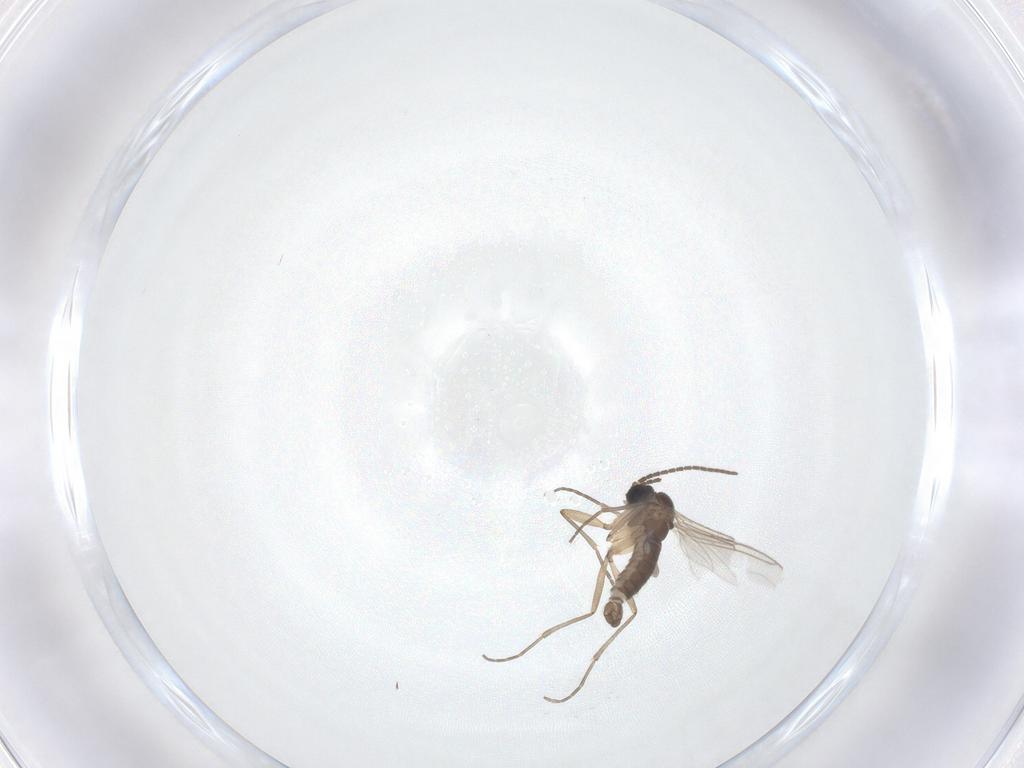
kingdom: Animalia
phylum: Arthropoda
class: Insecta
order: Diptera
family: Sciaridae
